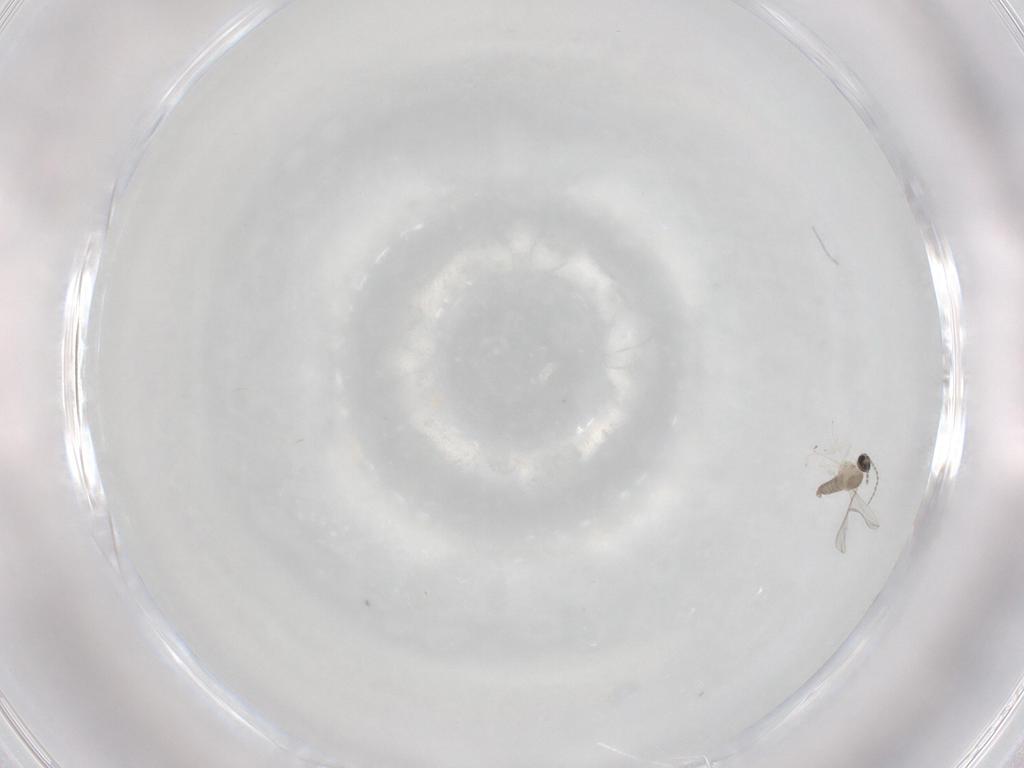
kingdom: Animalia
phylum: Arthropoda
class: Insecta
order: Diptera
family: Cecidomyiidae
